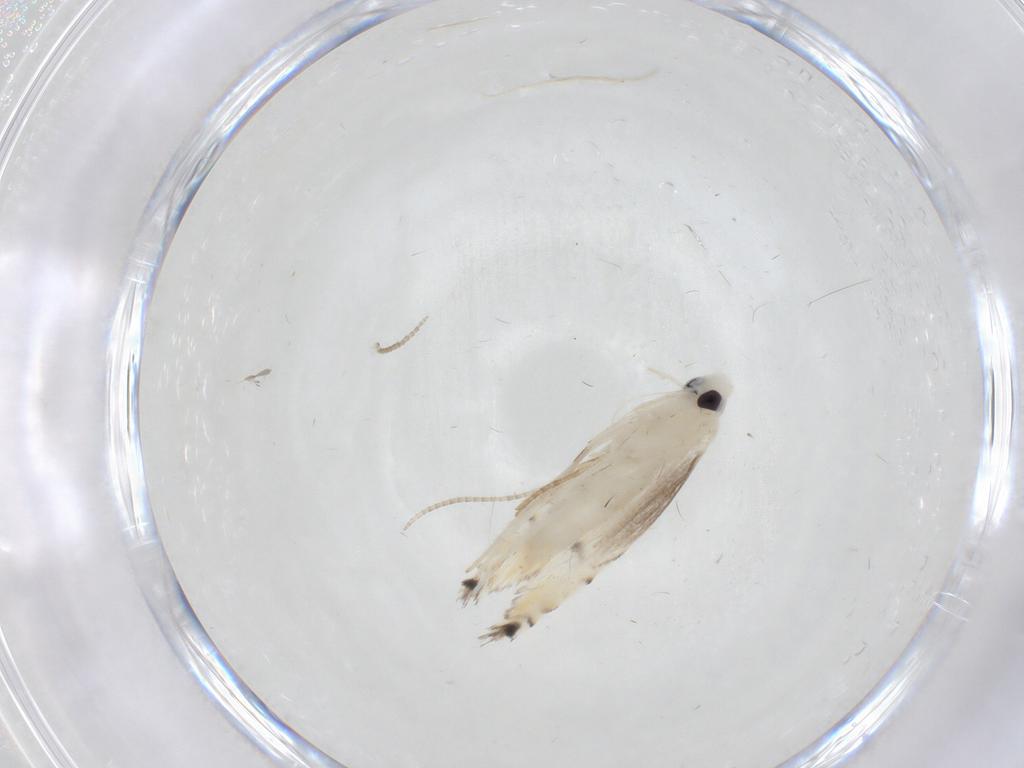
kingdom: Animalia
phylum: Arthropoda
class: Insecta
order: Lepidoptera
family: Gracillariidae
